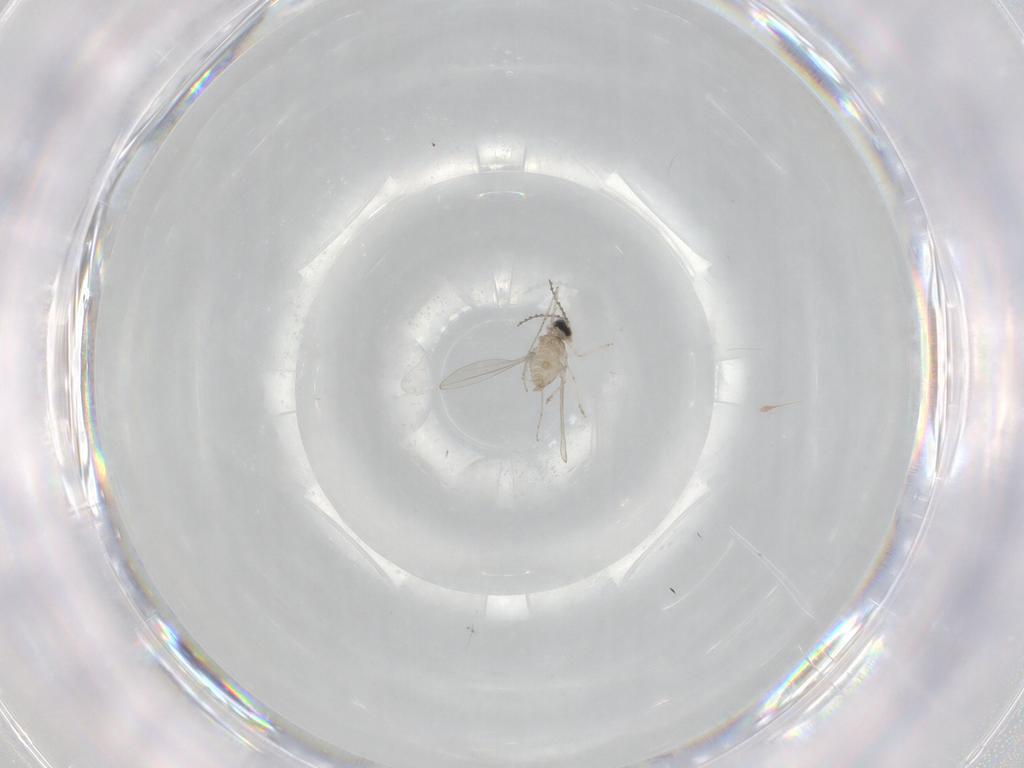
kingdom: Animalia
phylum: Arthropoda
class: Insecta
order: Diptera
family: Cecidomyiidae
